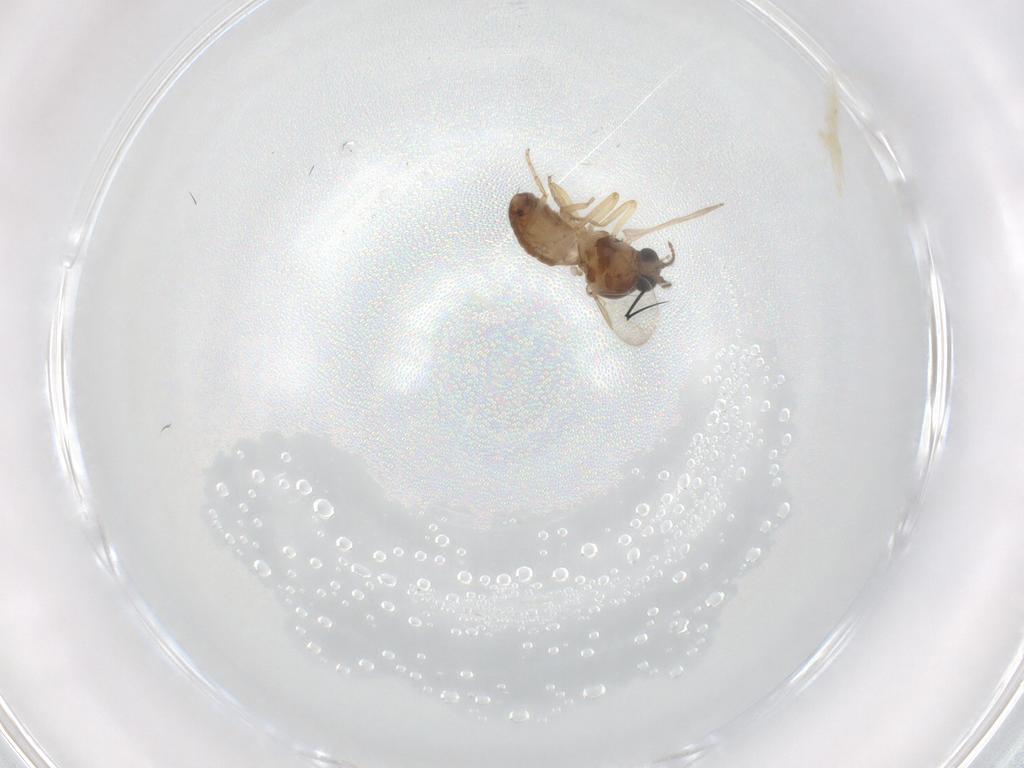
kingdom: Animalia
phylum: Arthropoda
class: Insecta
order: Diptera
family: Ceratopogonidae
